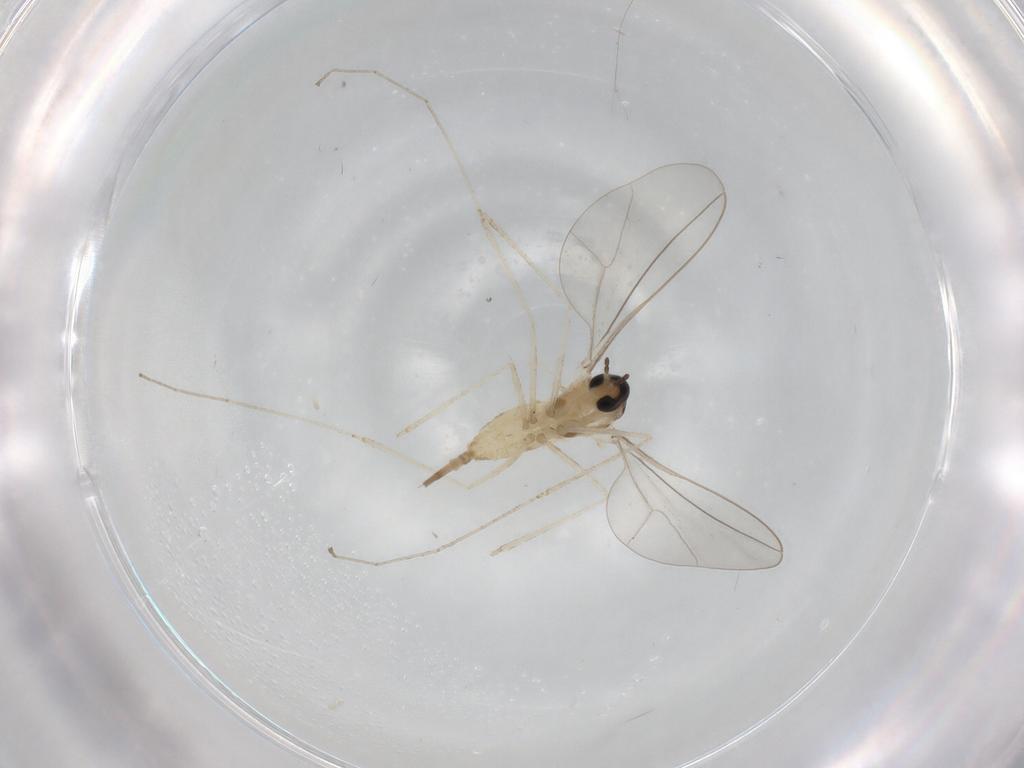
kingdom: Animalia
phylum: Arthropoda
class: Insecta
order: Diptera
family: Cecidomyiidae
